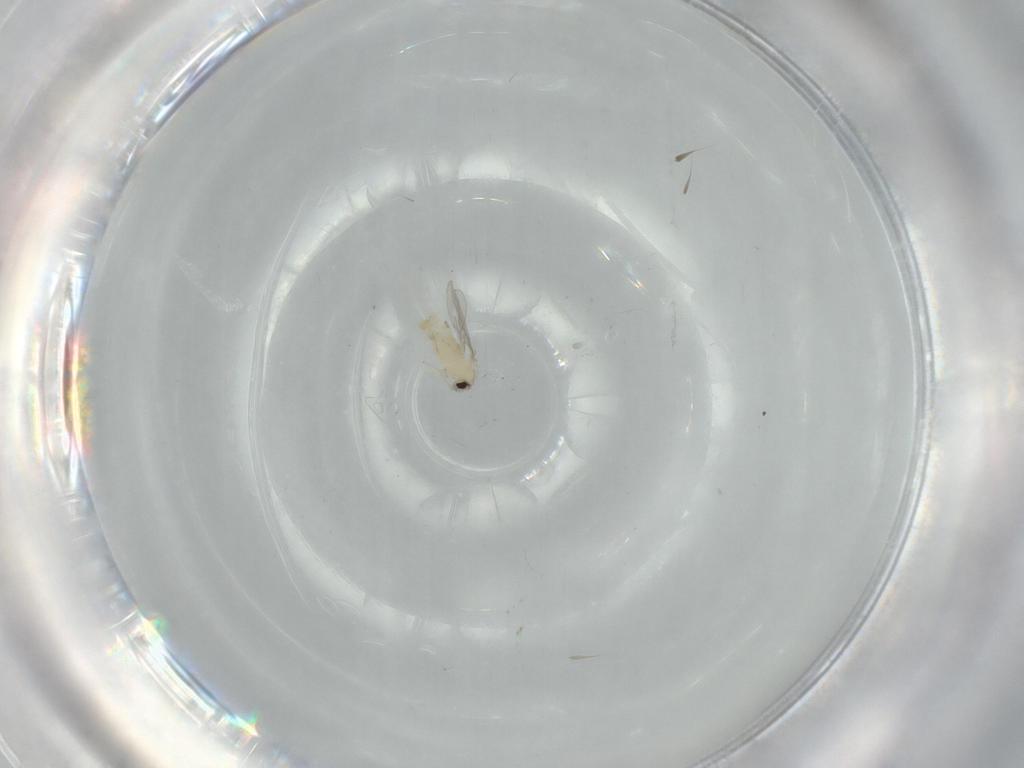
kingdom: Animalia
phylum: Arthropoda
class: Insecta
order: Diptera
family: Cecidomyiidae
